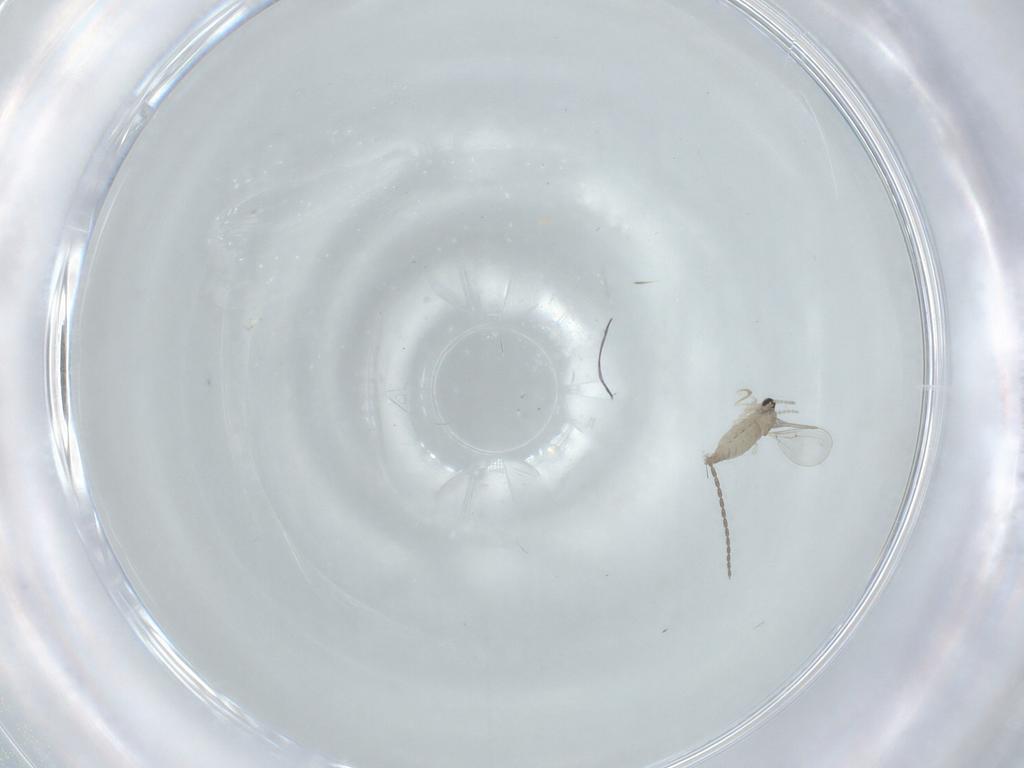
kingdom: Animalia
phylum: Arthropoda
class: Insecta
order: Diptera
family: Cecidomyiidae
